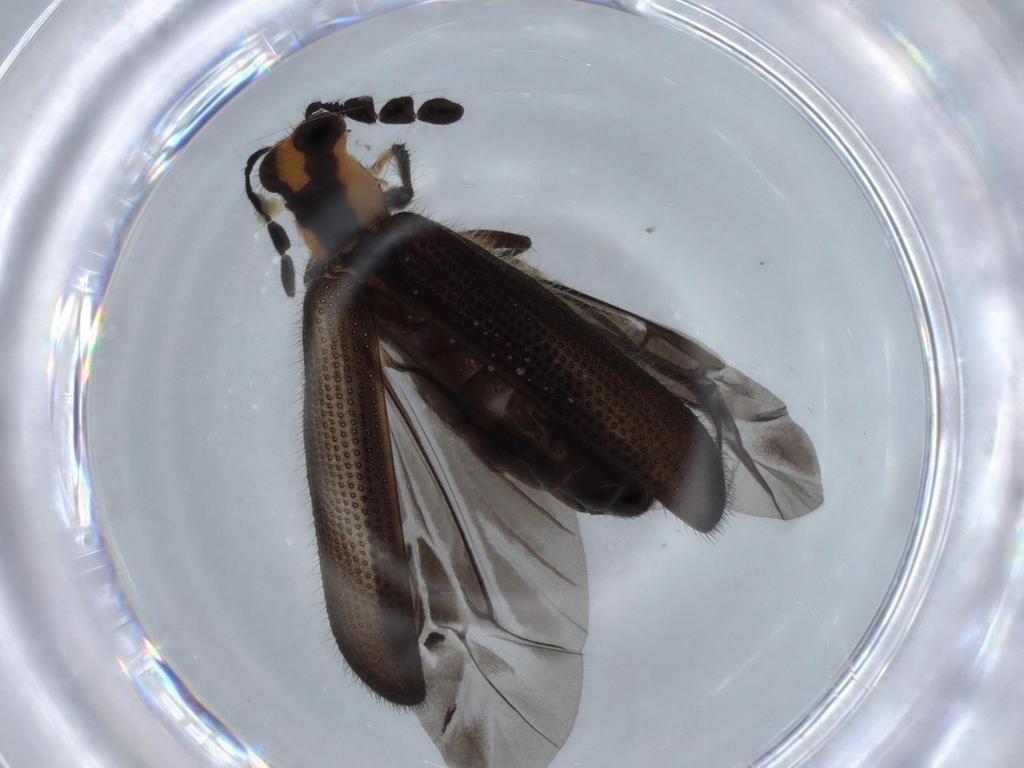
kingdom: Animalia
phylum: Arthropoda
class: Insecta
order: Coleoptera
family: Cleridae
